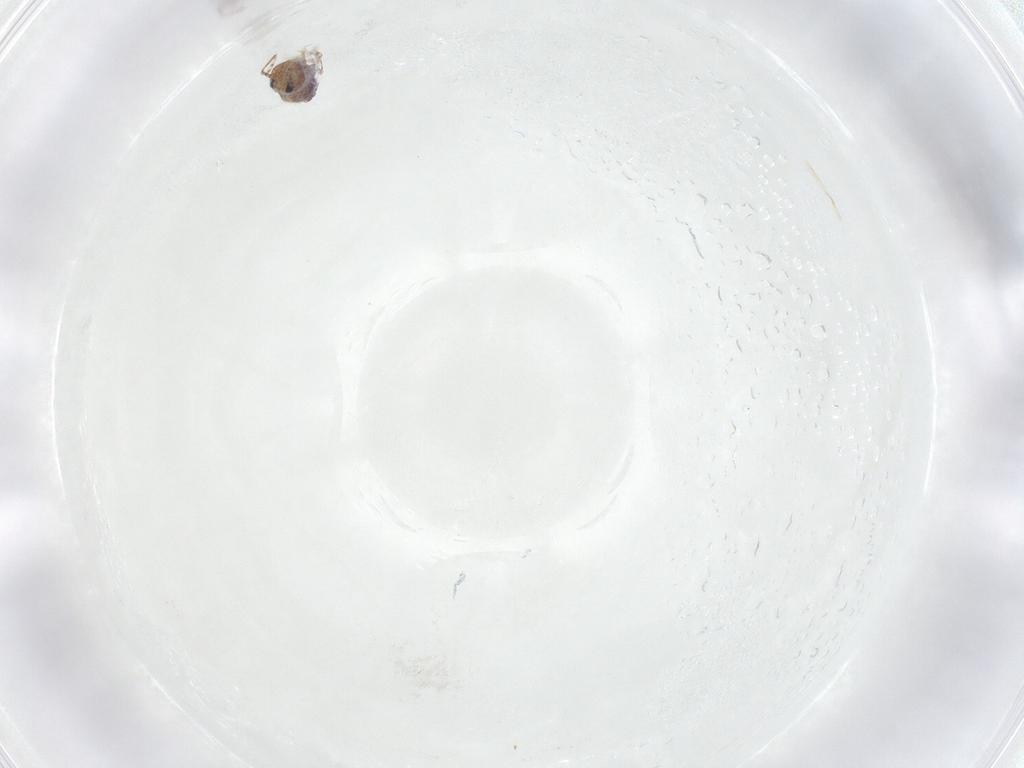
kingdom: Animalia
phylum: Arthropoda
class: Collembola
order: Symphypleona
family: Bourletiellidae
